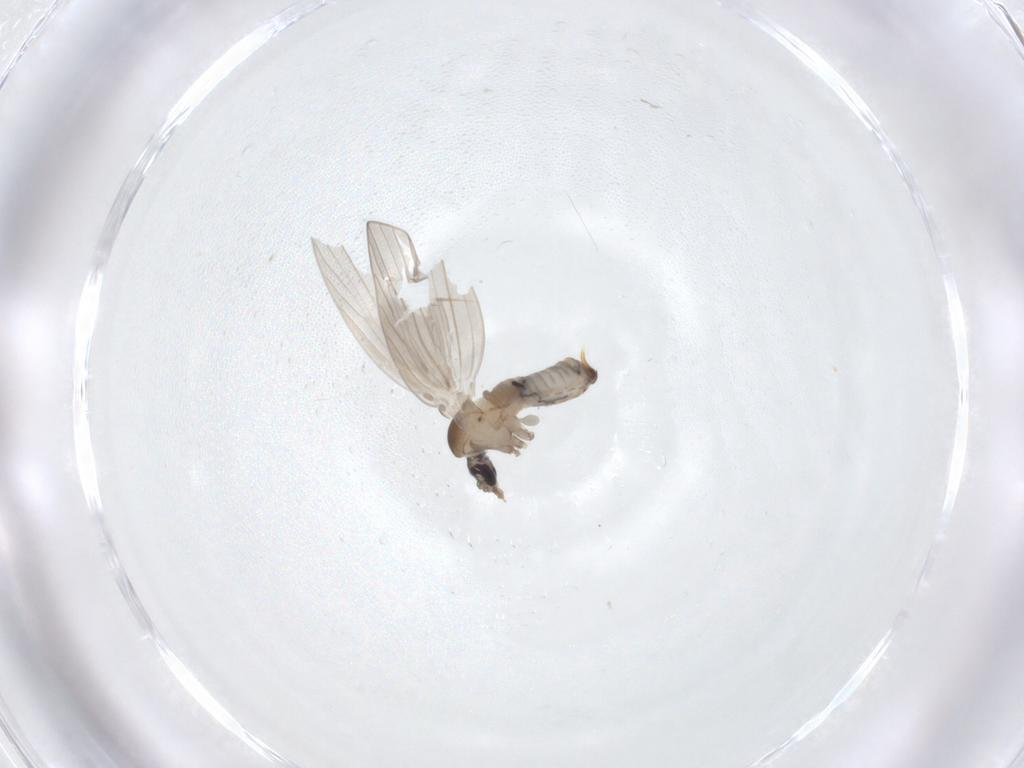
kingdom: Animalia
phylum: Arthropoda
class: Insecta
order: Diptera
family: Psychodidae
